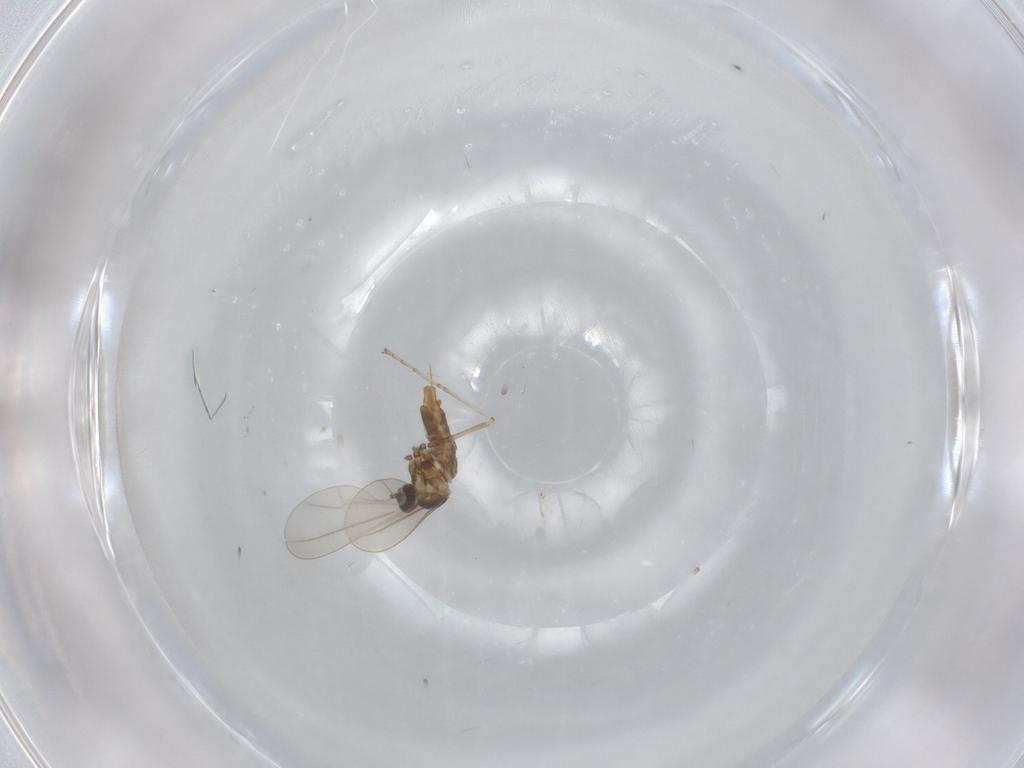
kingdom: Animalia
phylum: Arthropoda
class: Insecta
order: Diptera
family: Cecidomyiidae
